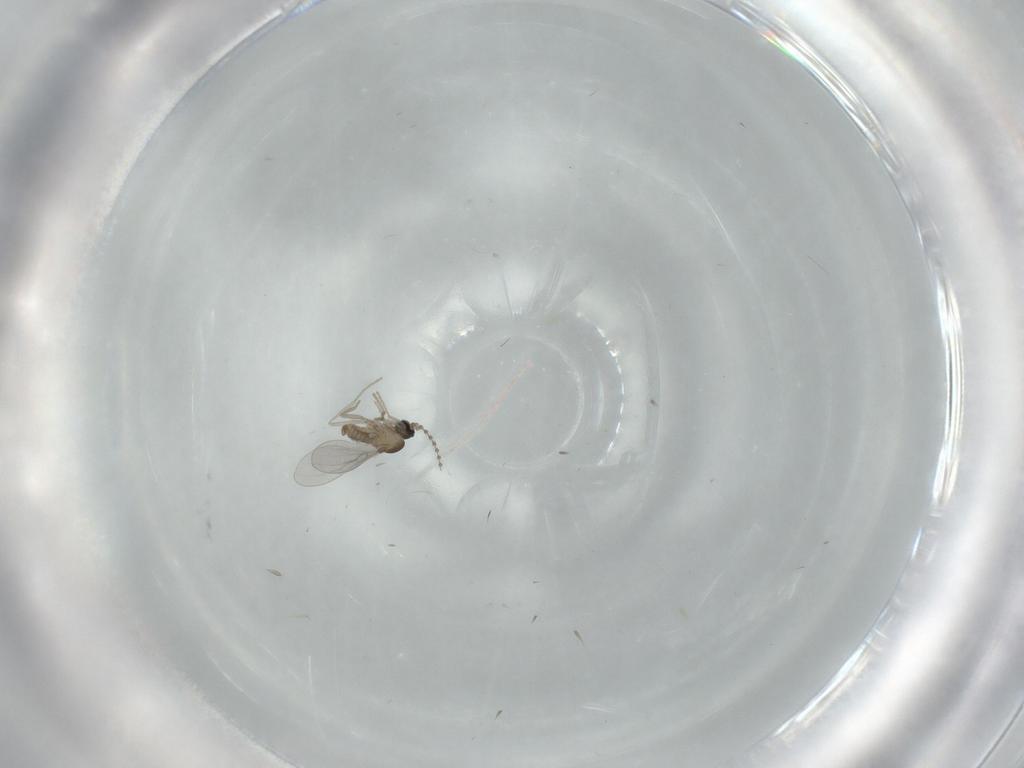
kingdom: Animalia
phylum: Arthropoda
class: Insecta
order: Diptera
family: Cecidomyiidae
